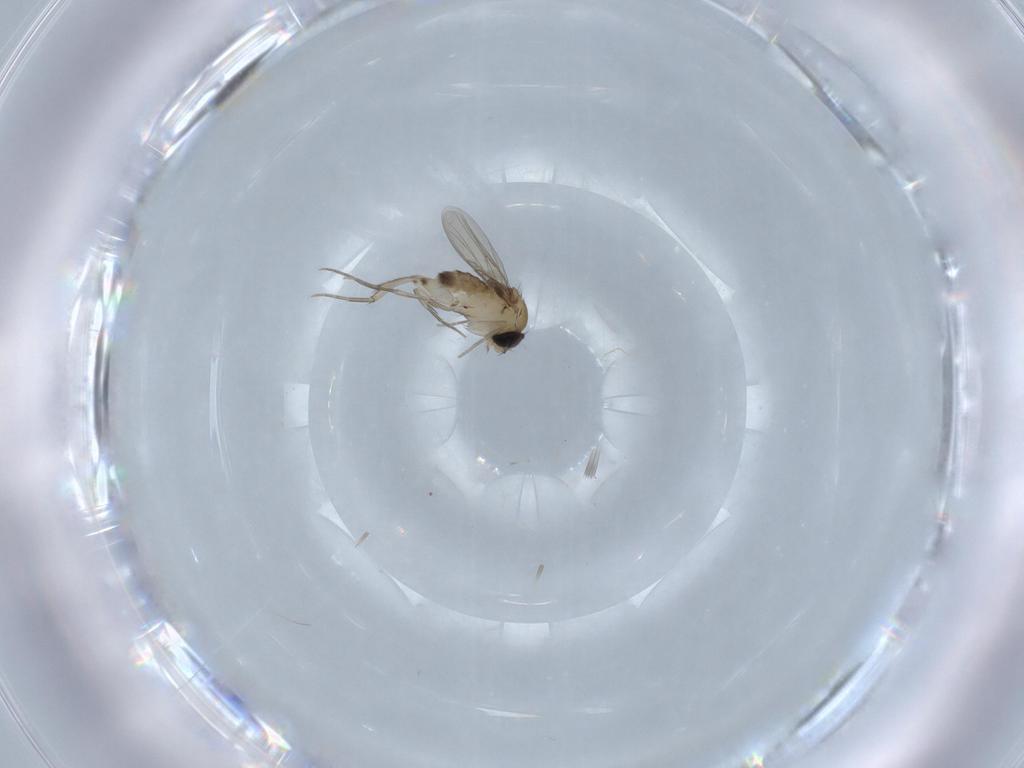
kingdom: Animalia
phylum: Arthropoda
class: Insecta
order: Diptera
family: Phoridae
